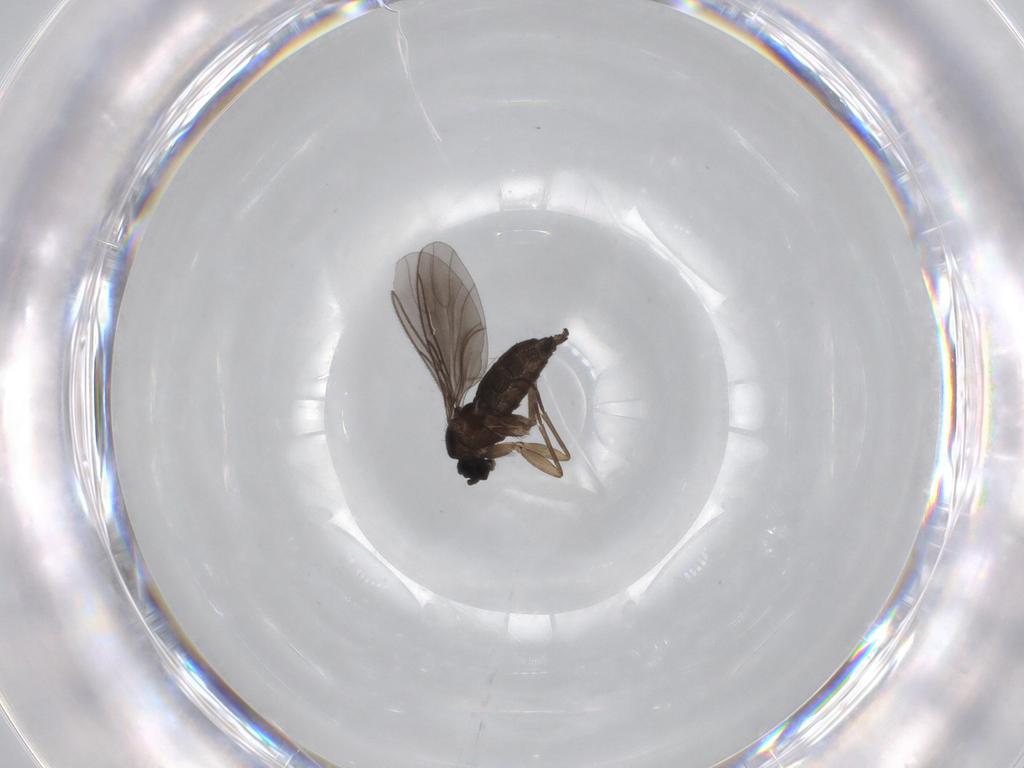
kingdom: Animalia
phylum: Arthropoda
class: Insecta
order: Diptera
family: Sciaridae
